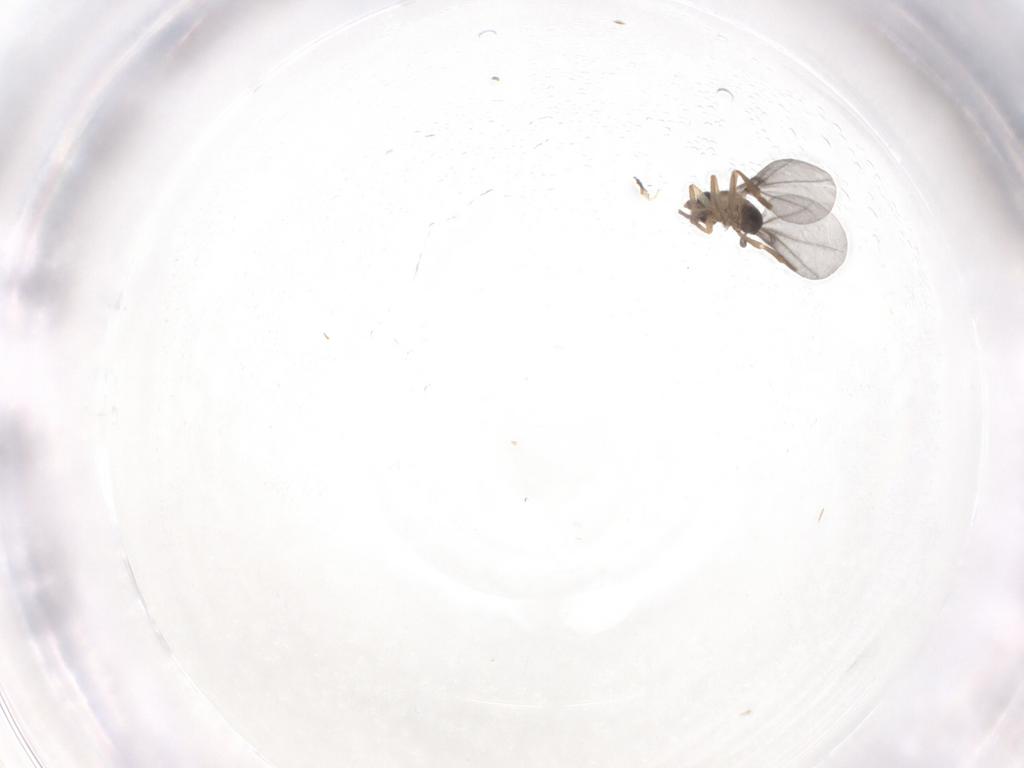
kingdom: Animalia
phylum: Arthropoda
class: Insecta
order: Diptera
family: Phoridae
